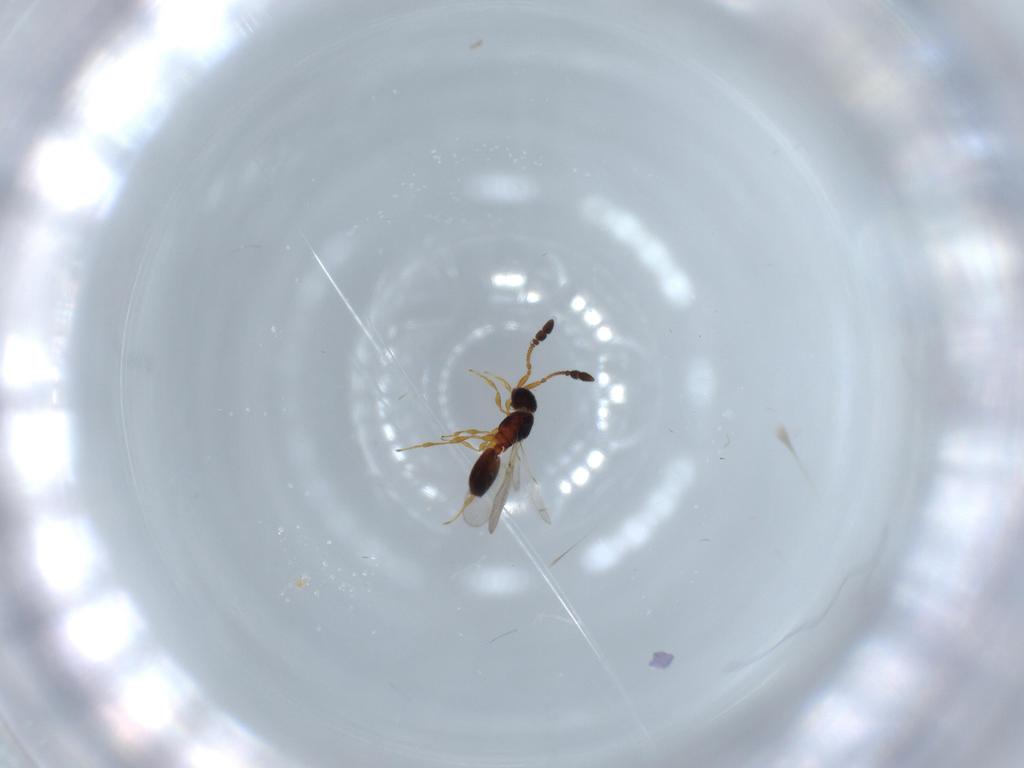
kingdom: Animalia
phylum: Arthropoda
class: Insecta
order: Hymenoptera
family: Diapriidae
